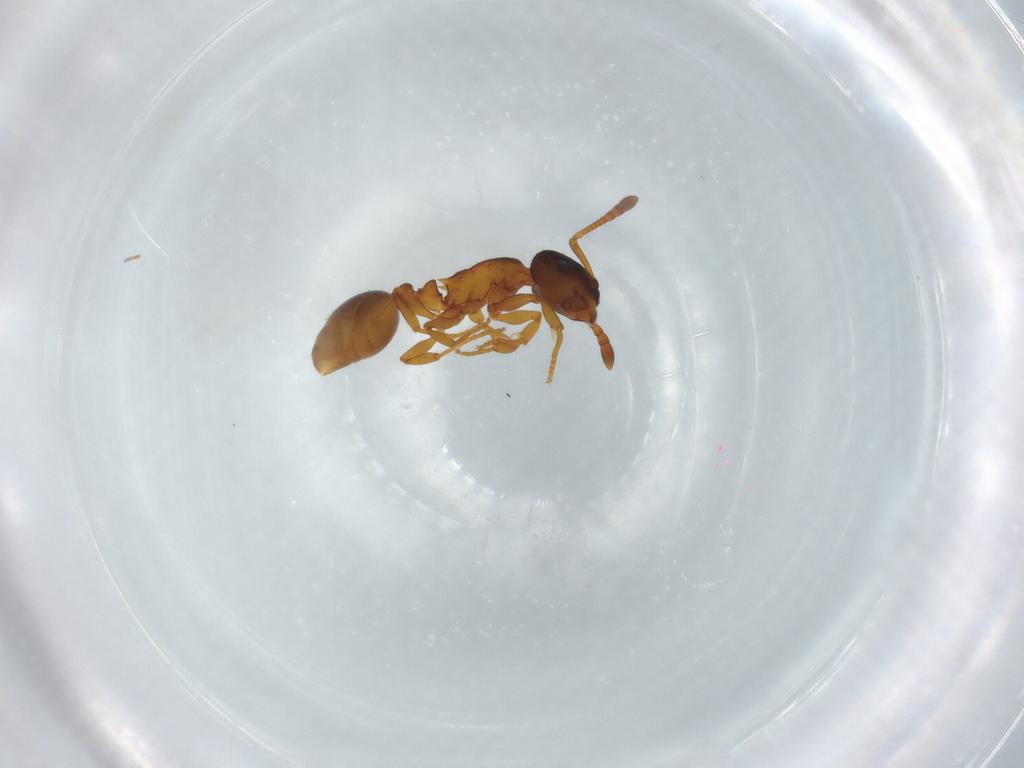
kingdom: Animalia
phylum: Arthropoda
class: Insecta
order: Hymenoptera
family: Formicidae
